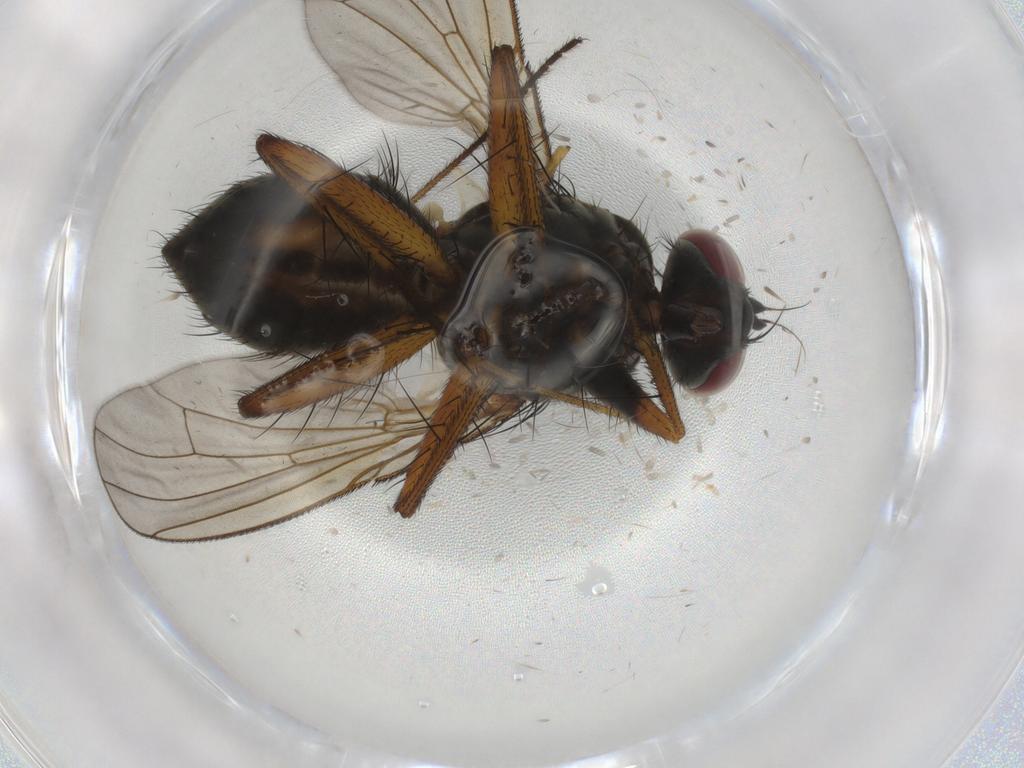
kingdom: Animalia
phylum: Arthropoda
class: Insecta
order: Diptera
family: Muscidae
